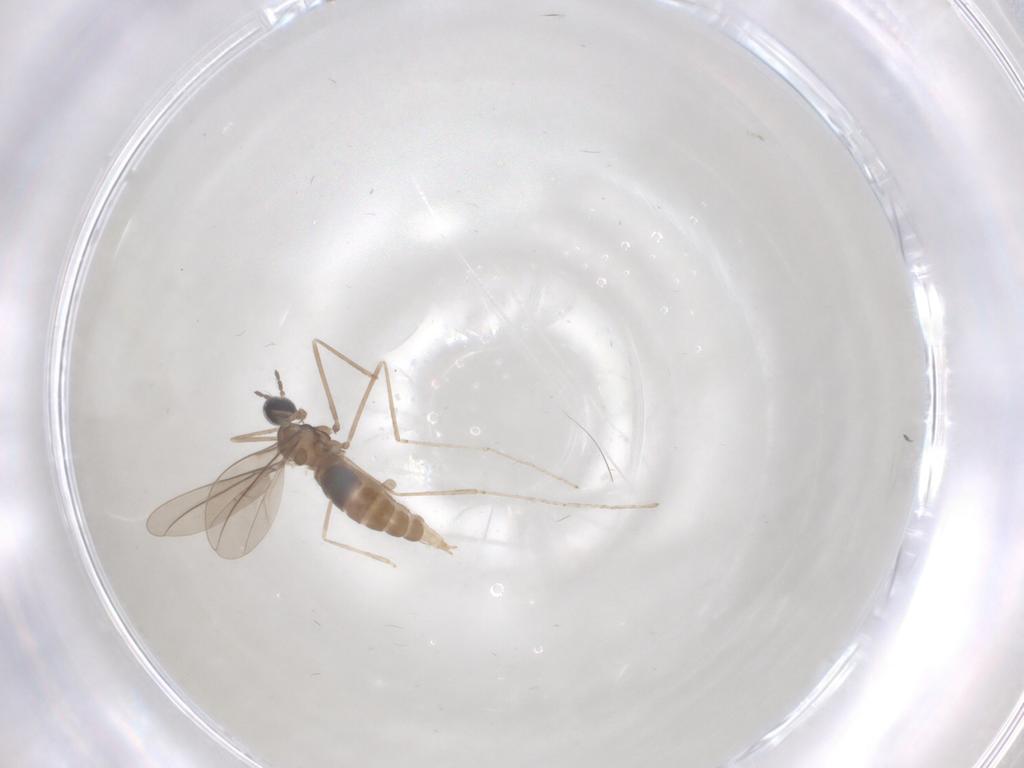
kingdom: Animalia
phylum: Arthropoda
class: Insecta
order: Diptera
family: Cecidomyiidae
